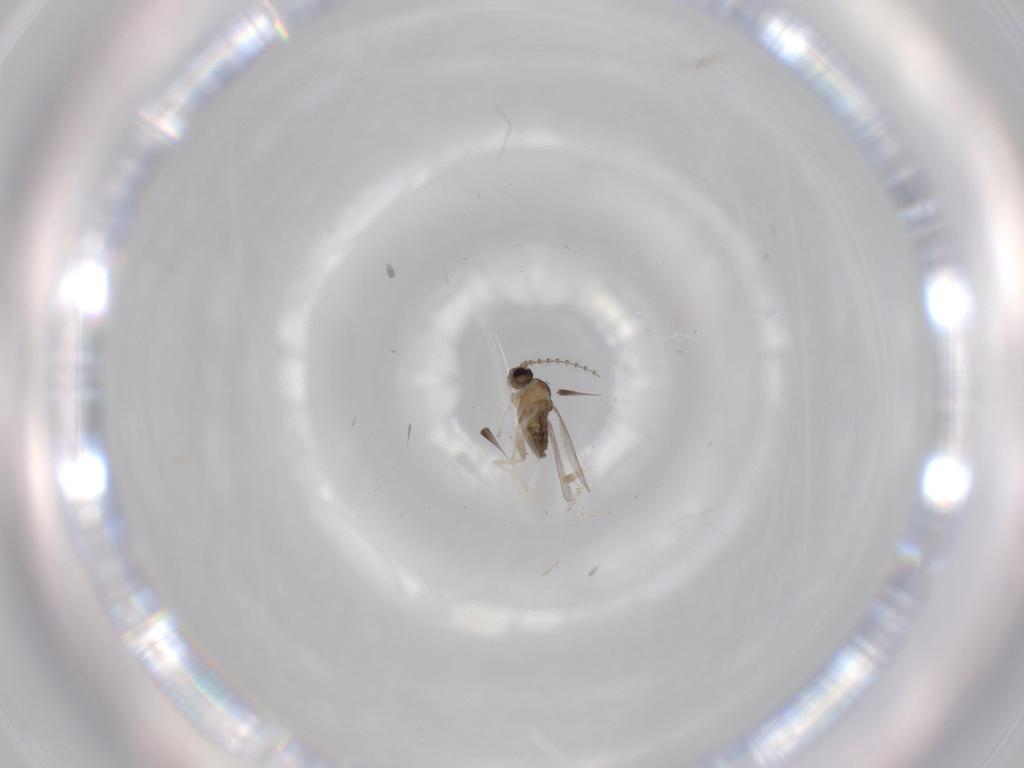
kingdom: Animalia
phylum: Arthropoda
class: Insecta
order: Diptera
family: Cecidomyiidae
